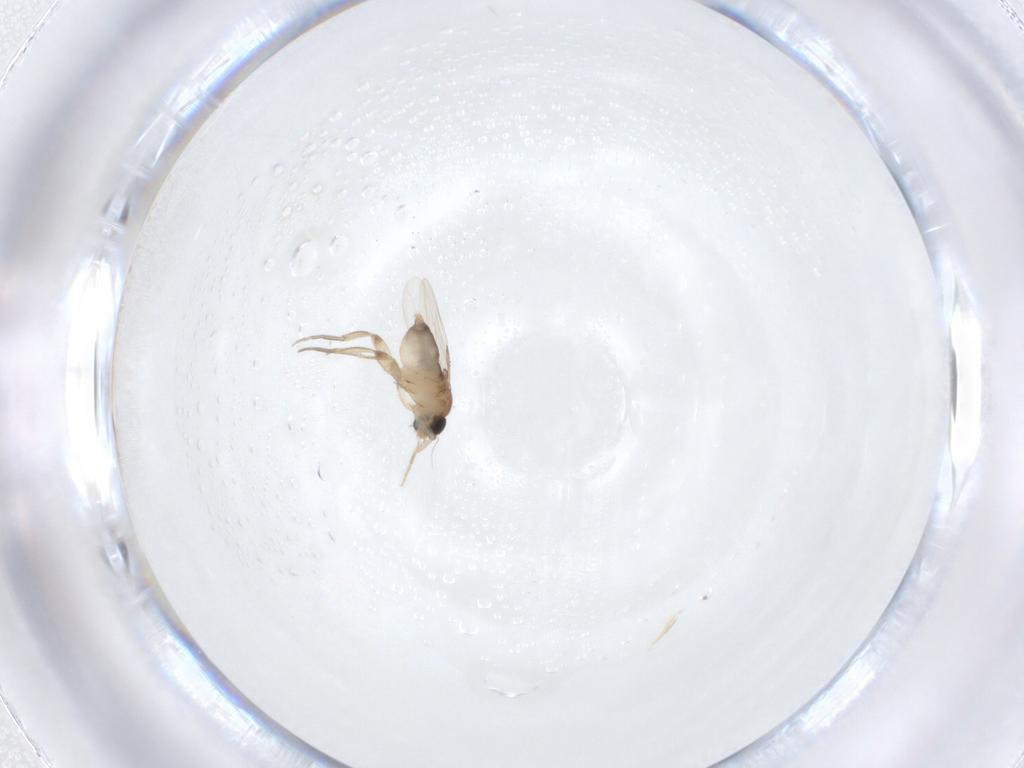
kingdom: Animalia
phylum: Arthropoda
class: Insecta
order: Diptera
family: Phoridae
